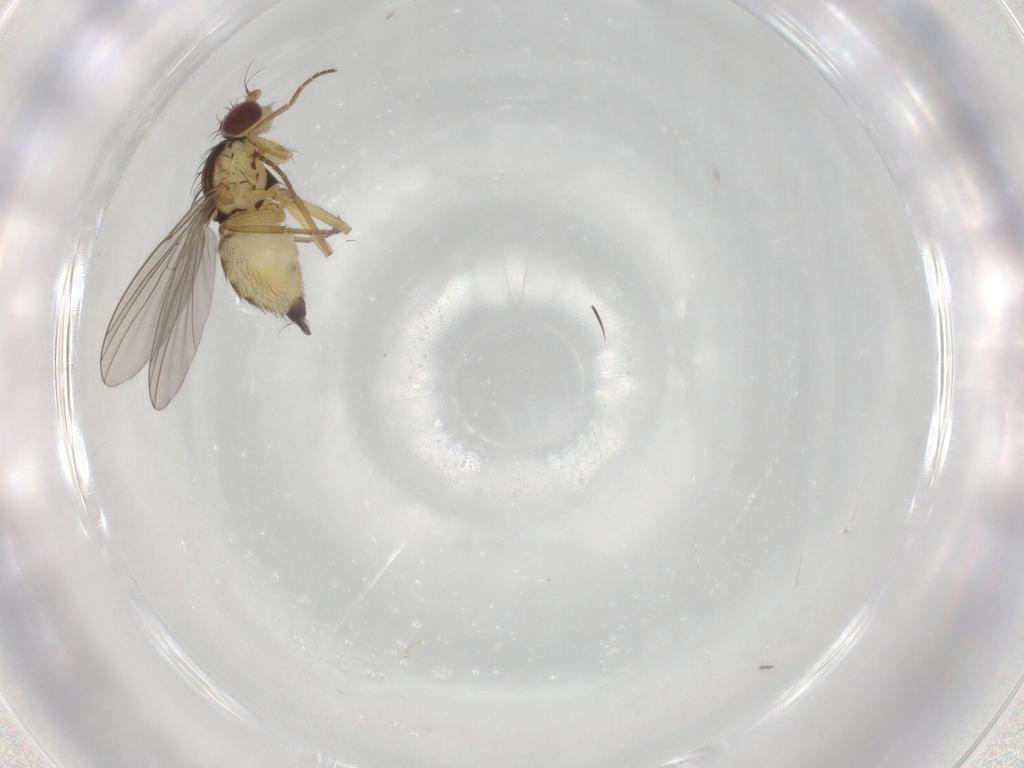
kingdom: Animalia
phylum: Arthropoda
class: Insecta
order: Diptera
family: Agromyzidae
